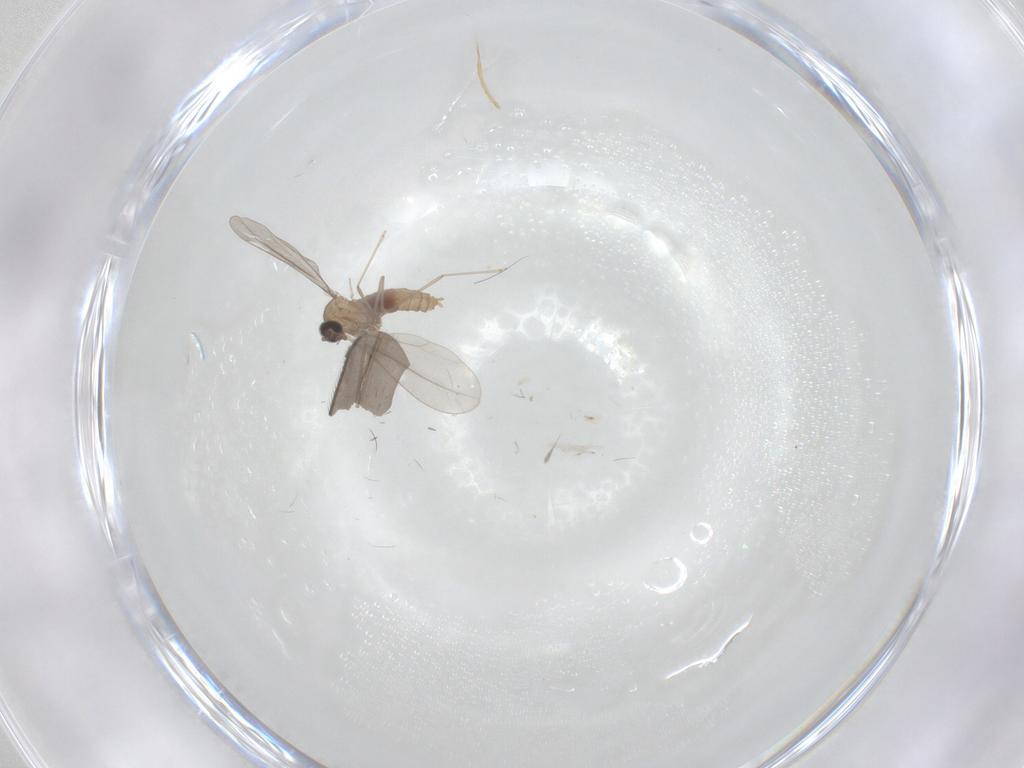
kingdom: Animalia
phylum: Arthropoda
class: Insecta
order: Diptera
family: Sciaridae
